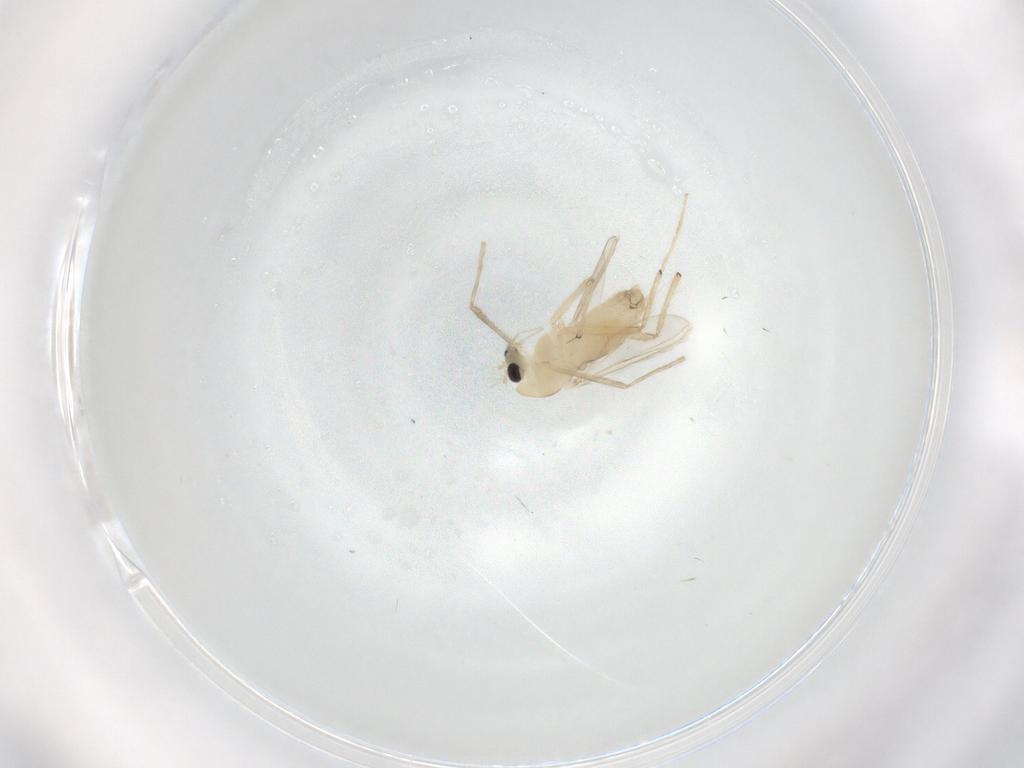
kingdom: Animalia
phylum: Arthropoda
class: Insecta
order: Diptera
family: Chironomidae
